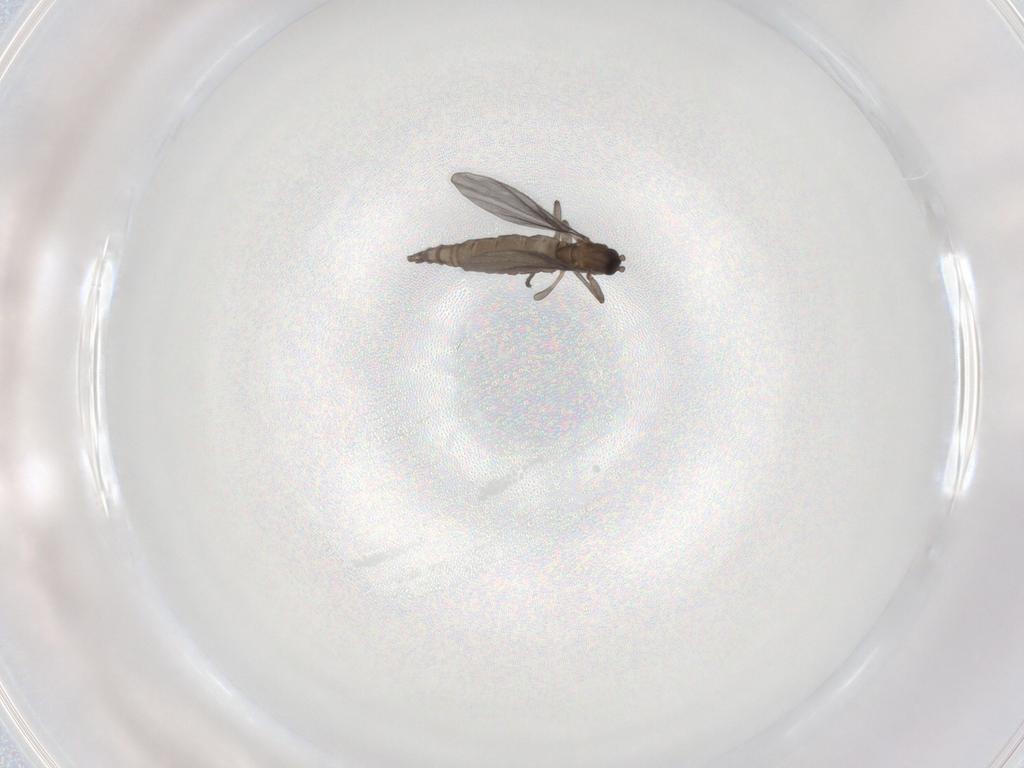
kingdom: Animalia
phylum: Arthropoda
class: Insecta
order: Diptera
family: Sciaridae
